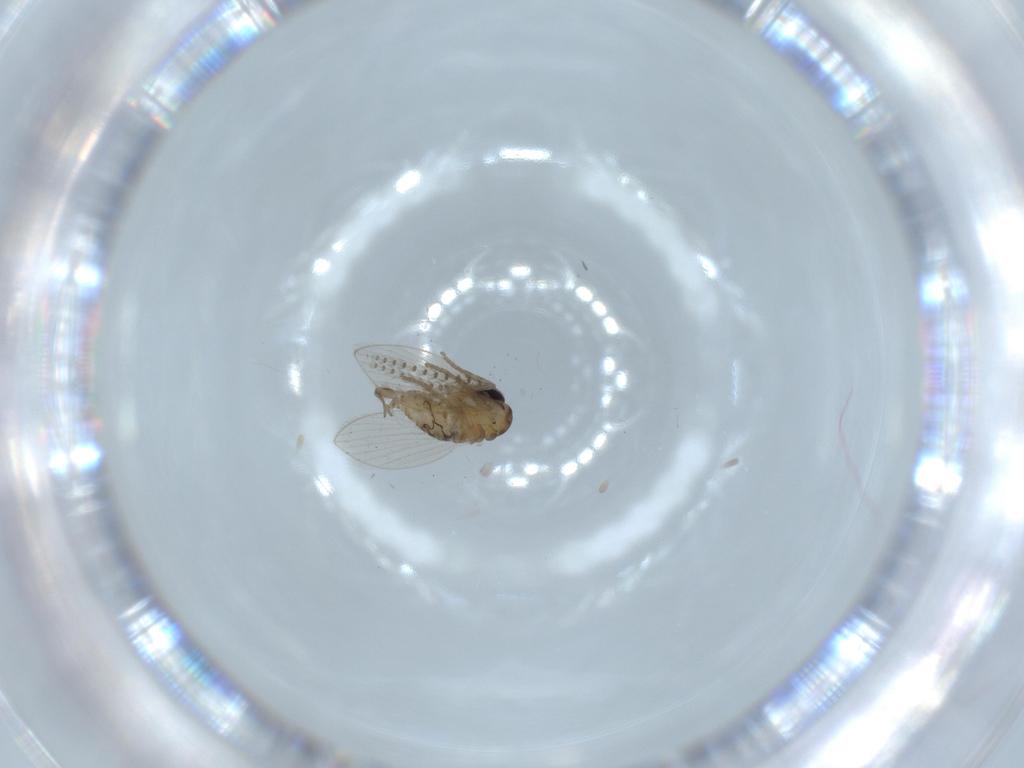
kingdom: Animalia
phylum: Arthropoda
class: Insecta
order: Diptera
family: Psychodidae
